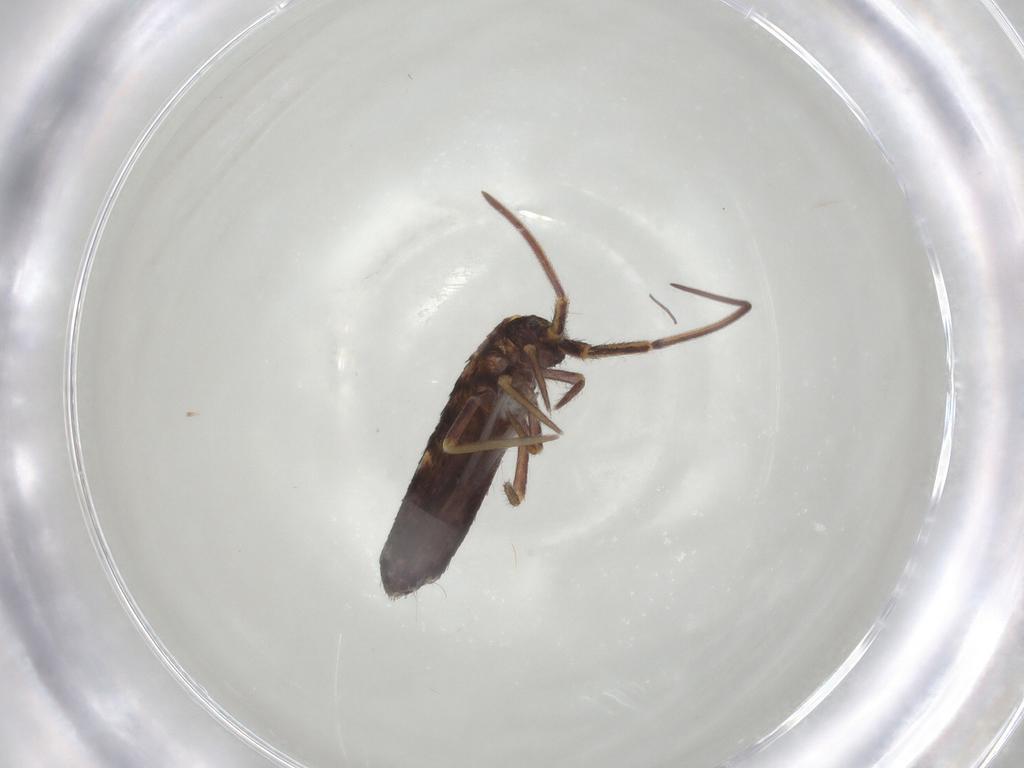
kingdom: Animalia
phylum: Arthropoda
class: Collembola
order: Entomobryomorpha
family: Entomobryidae
